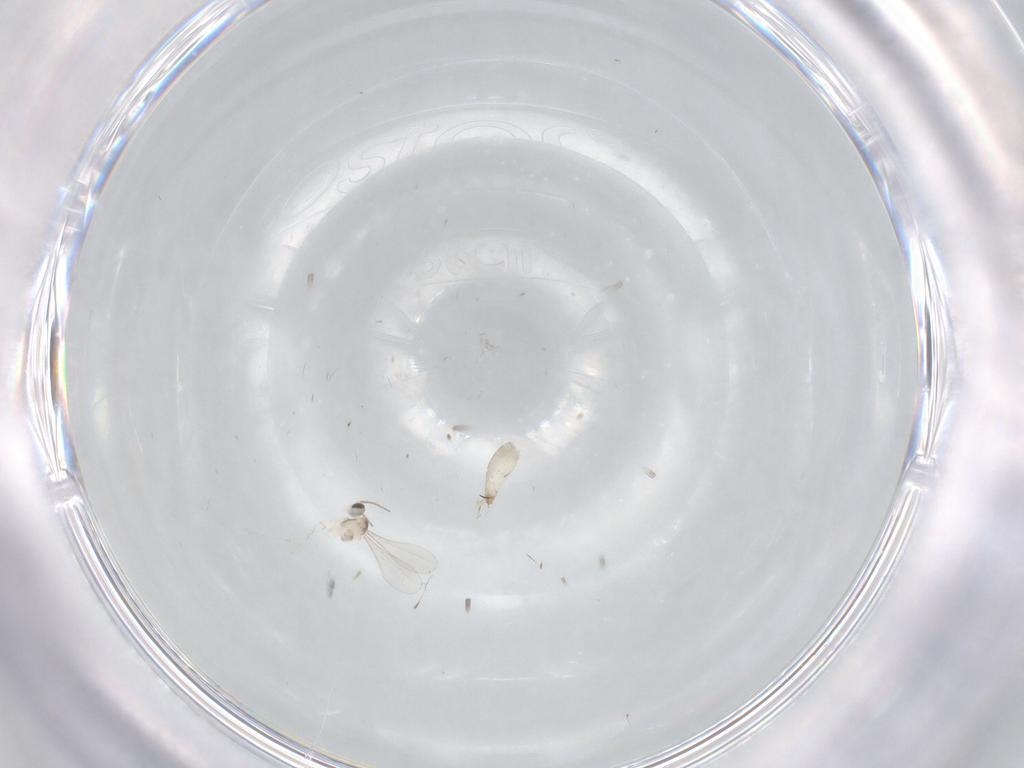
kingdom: Animalia
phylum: Arthropoda
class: Insecta
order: Diptera
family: Cecidomyiidae
